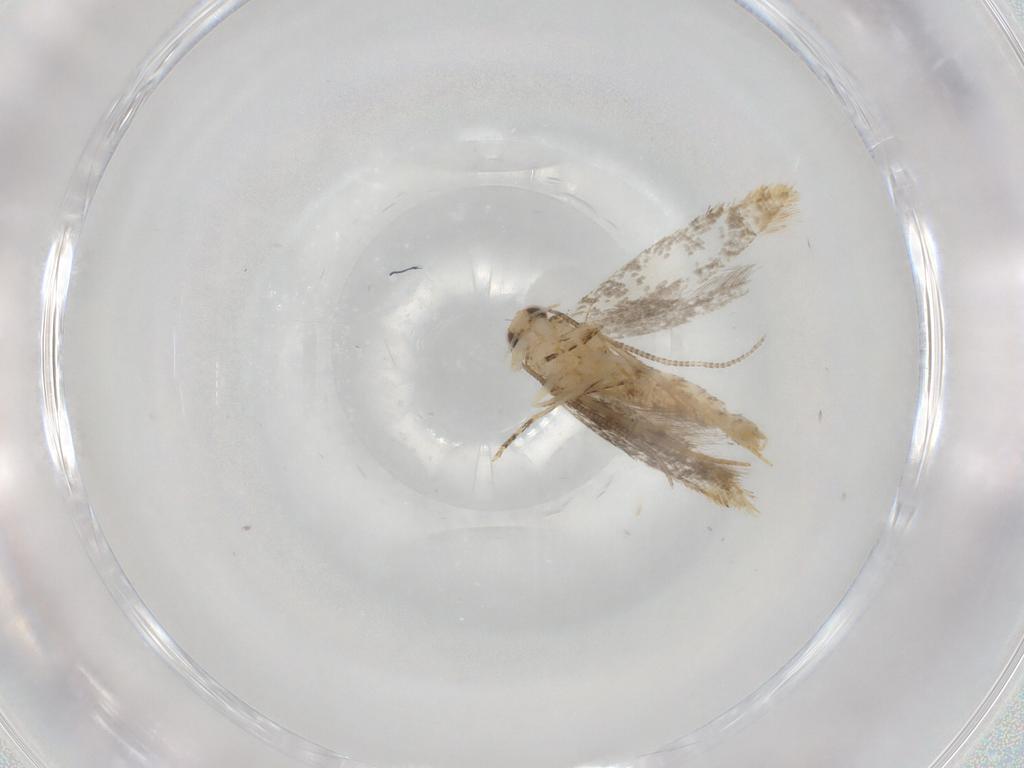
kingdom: Animalia
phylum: Arthropoda
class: Insecta
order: Lepidoptera
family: Tineidae
